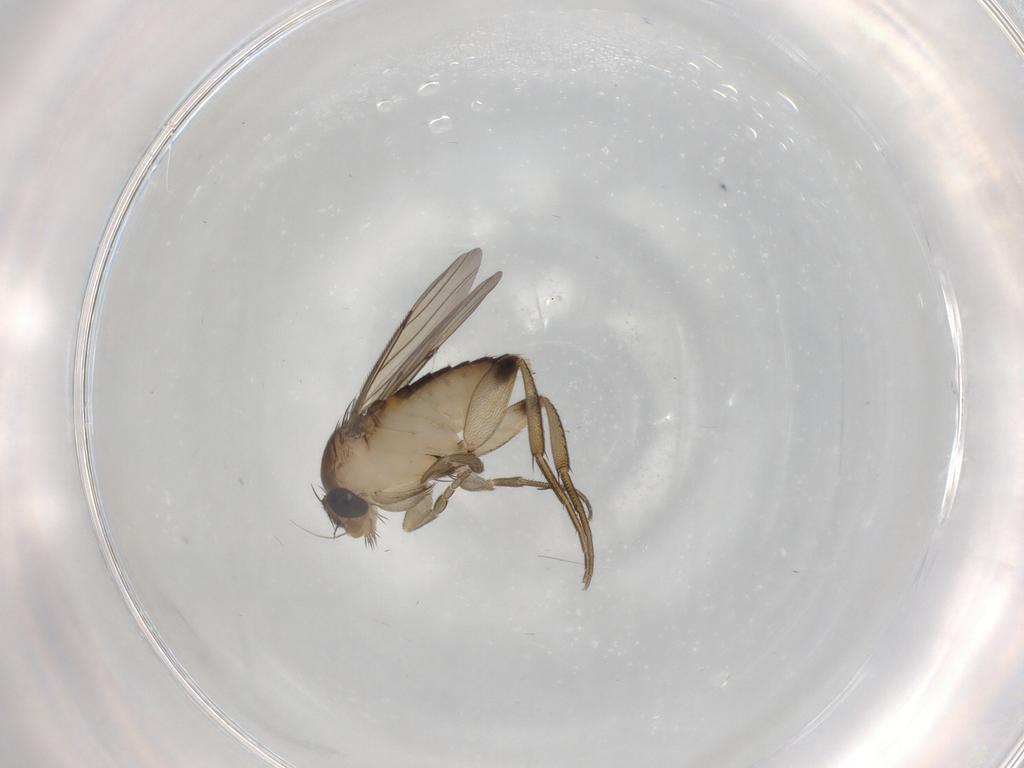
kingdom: Animalia
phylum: Arthropoda
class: Insecta
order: Diptera
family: Phoridae
